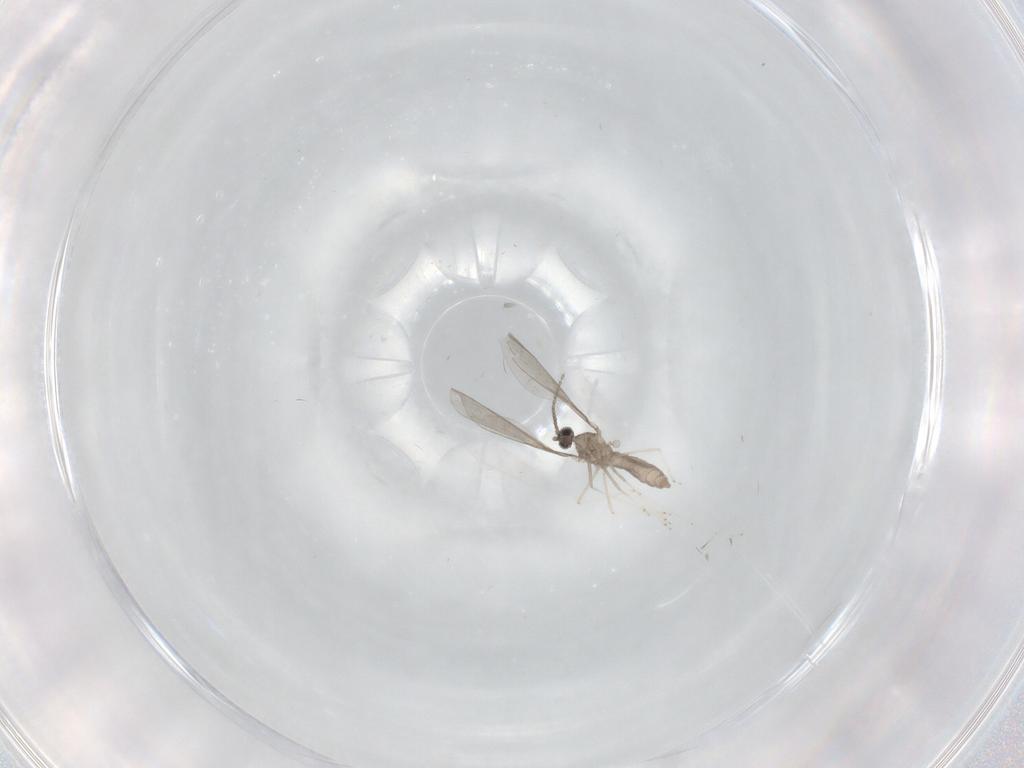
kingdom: Animalia
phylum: Arthropoda
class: Insecta
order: Diptera
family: Cecidomyiidae
